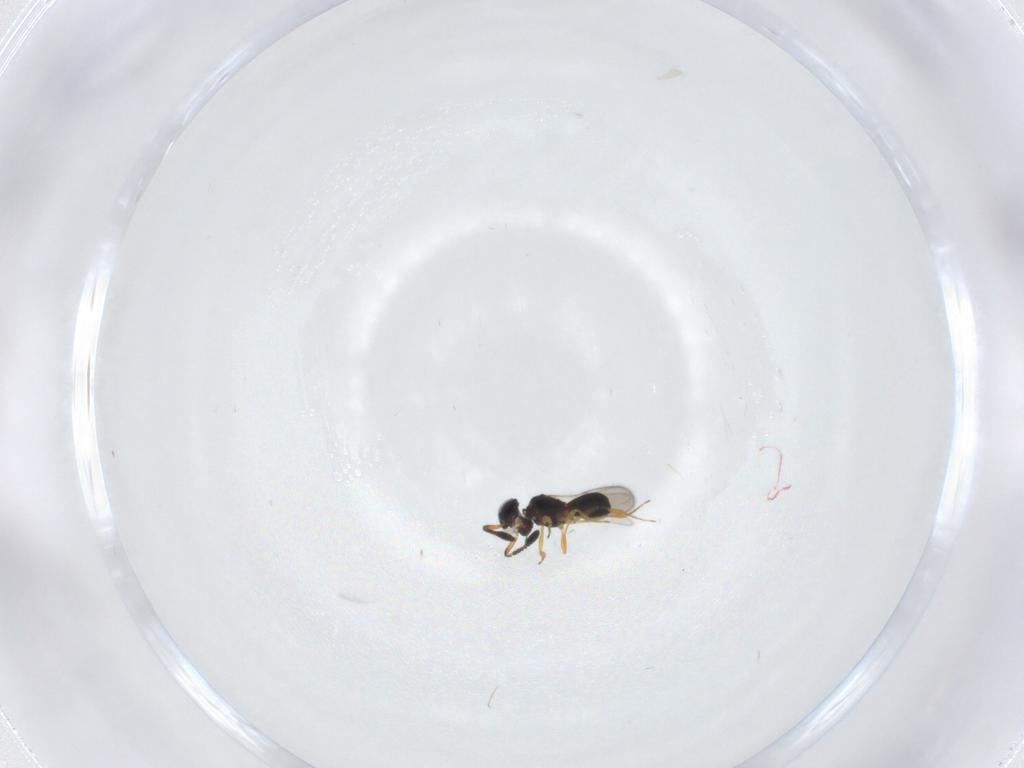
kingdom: Animalia
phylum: Arthropoda
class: Insecta
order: Hymenoptera
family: Scelionidae
